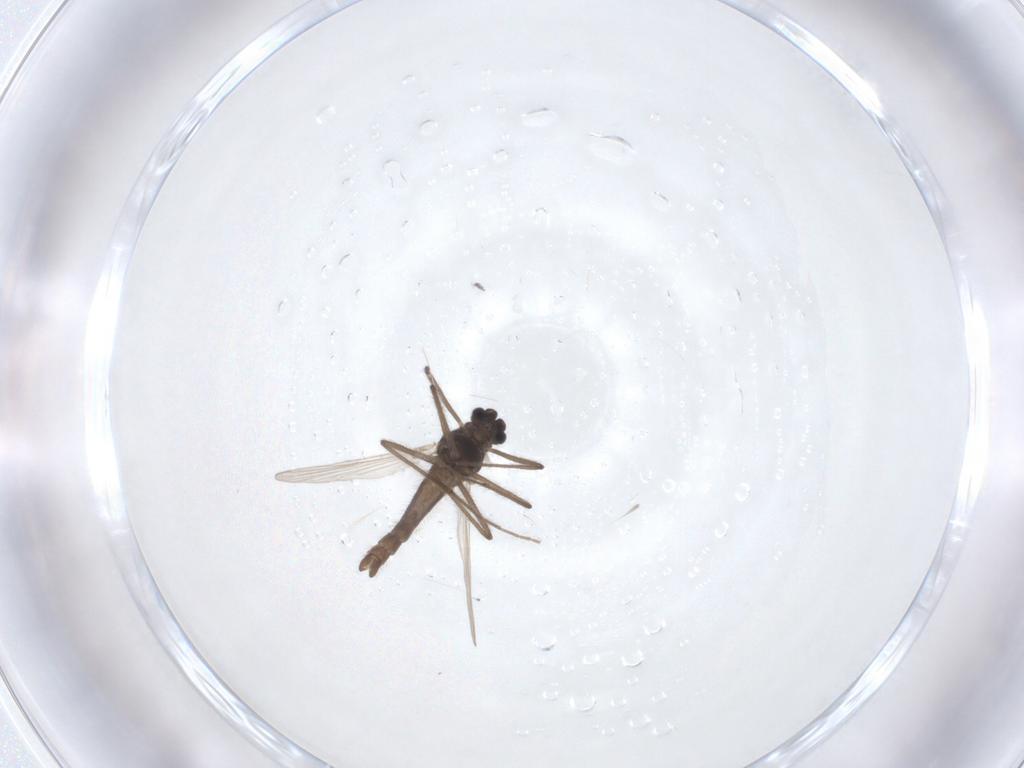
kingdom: Animalia
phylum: Arthropoda
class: Insecta
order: Diptera
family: Chironomidae
